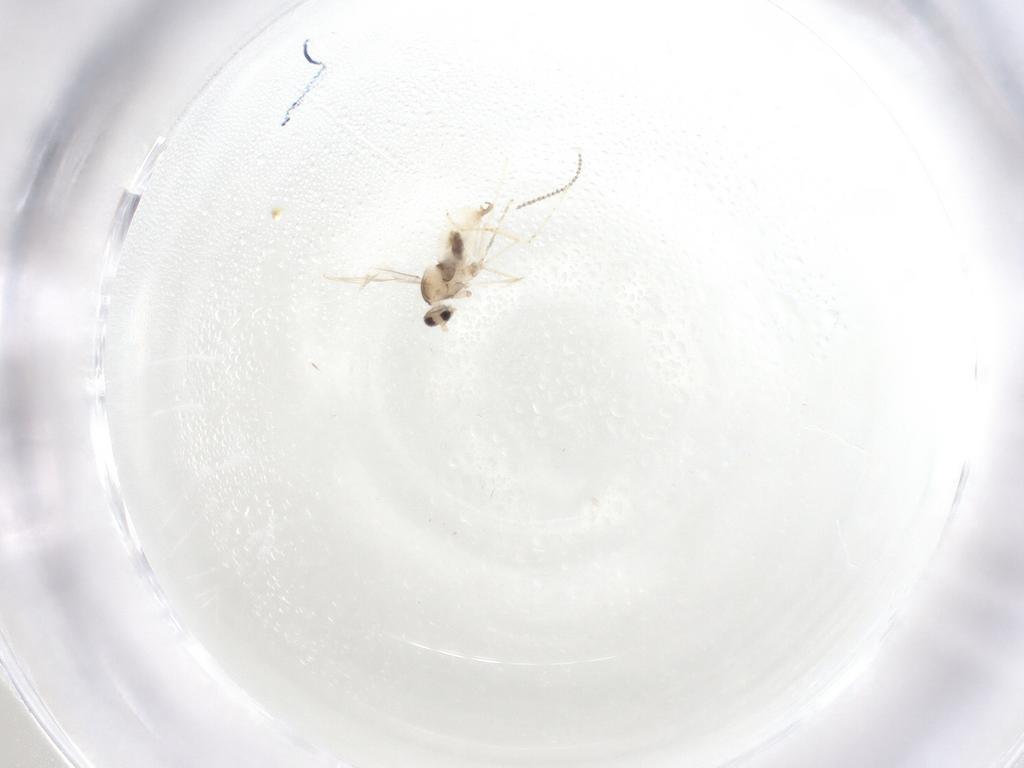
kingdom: Animalia
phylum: Arthropoda
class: Insecta
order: Diptera
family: Cecidomyiidae
